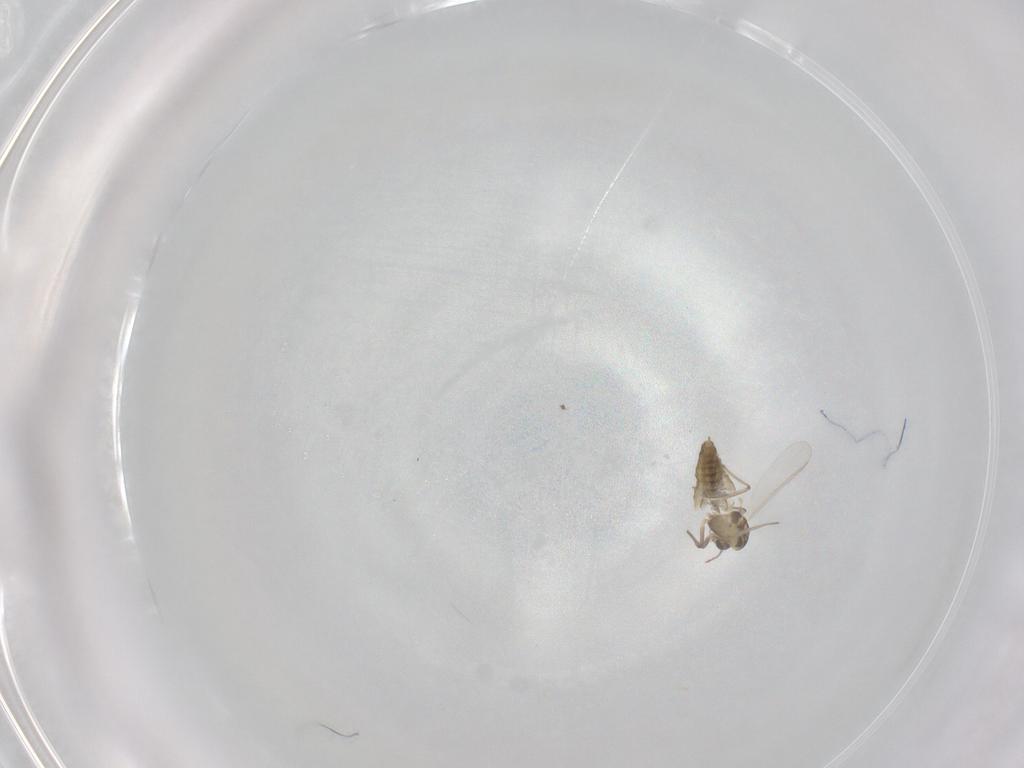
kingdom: Animalia
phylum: Arthropoda
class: Insecta
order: Diptera
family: Chironomidae
